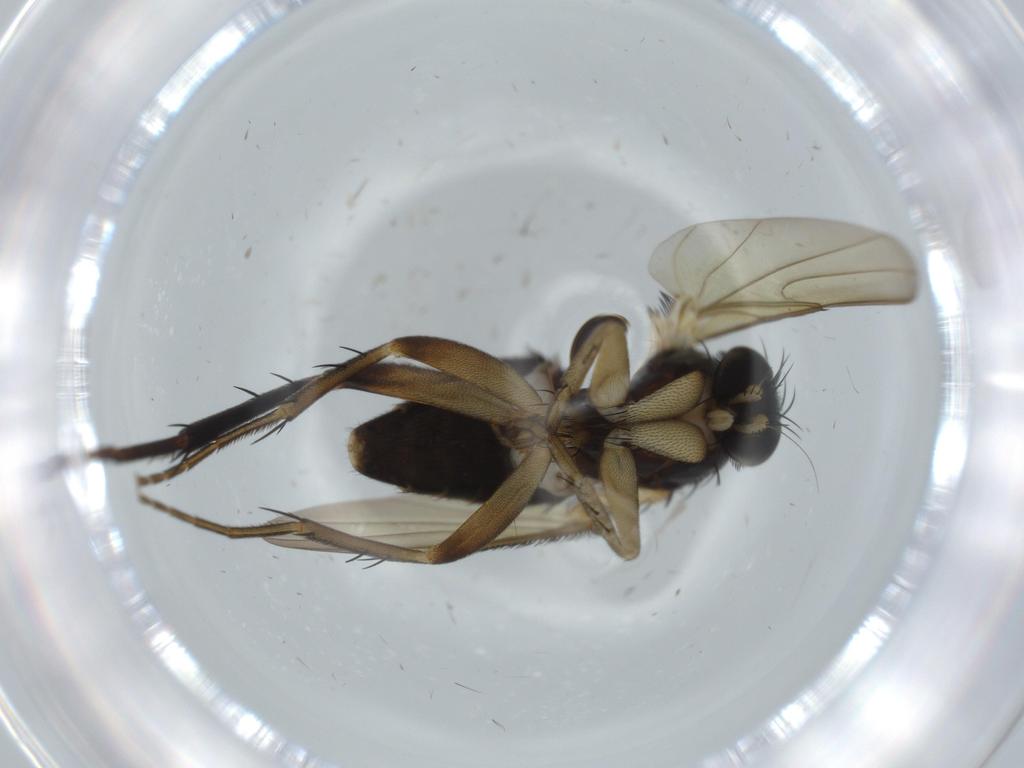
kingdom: Animalia
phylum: Arthropoda
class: Insecta
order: Diptera
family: Phoridae
